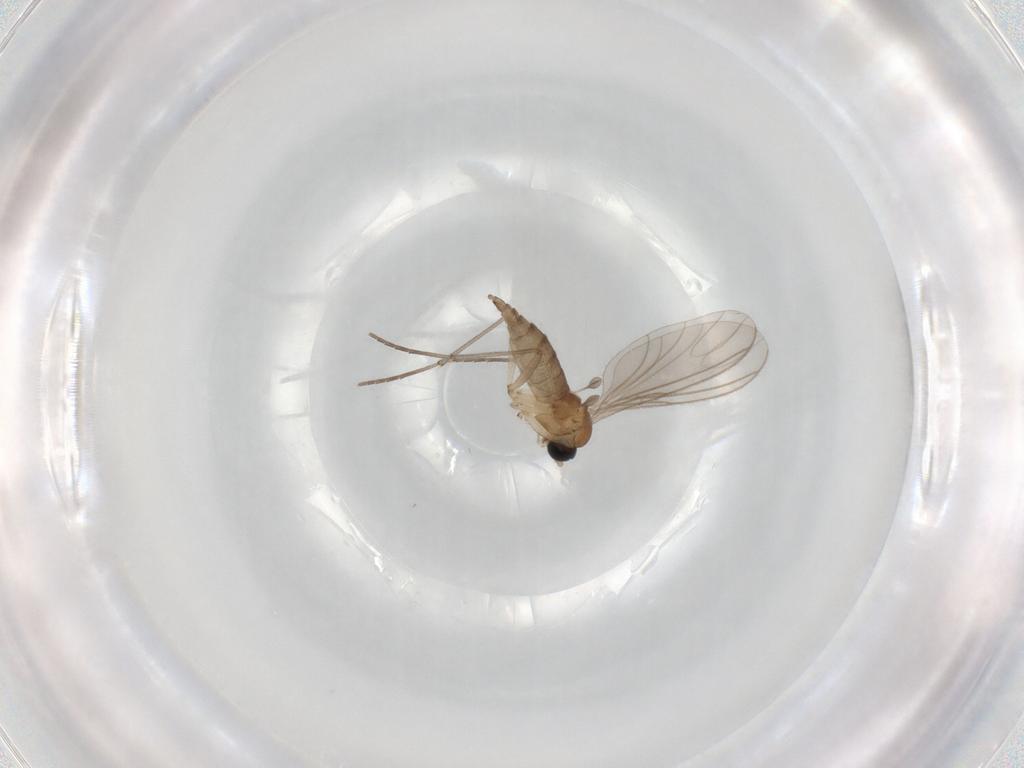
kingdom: Animalia
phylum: Arthropoda
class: Insecta
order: Diptera
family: Sciaridae
